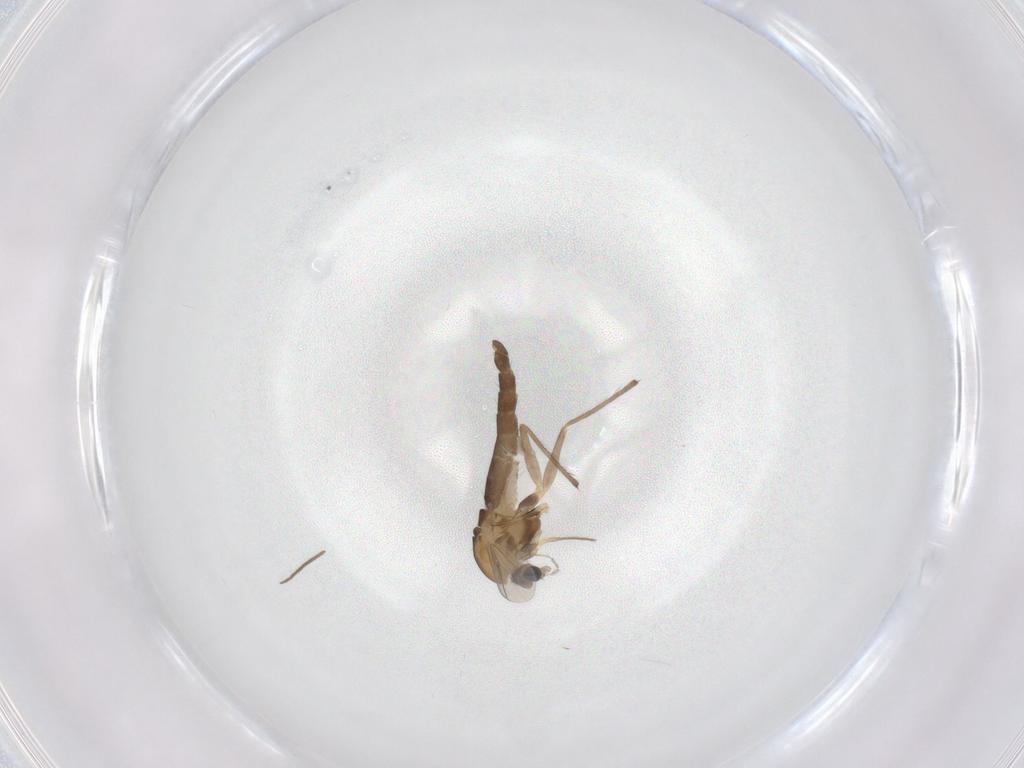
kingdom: Animalia
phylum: Arthropoda
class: Insecta
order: Diptera
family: Chironomidae
